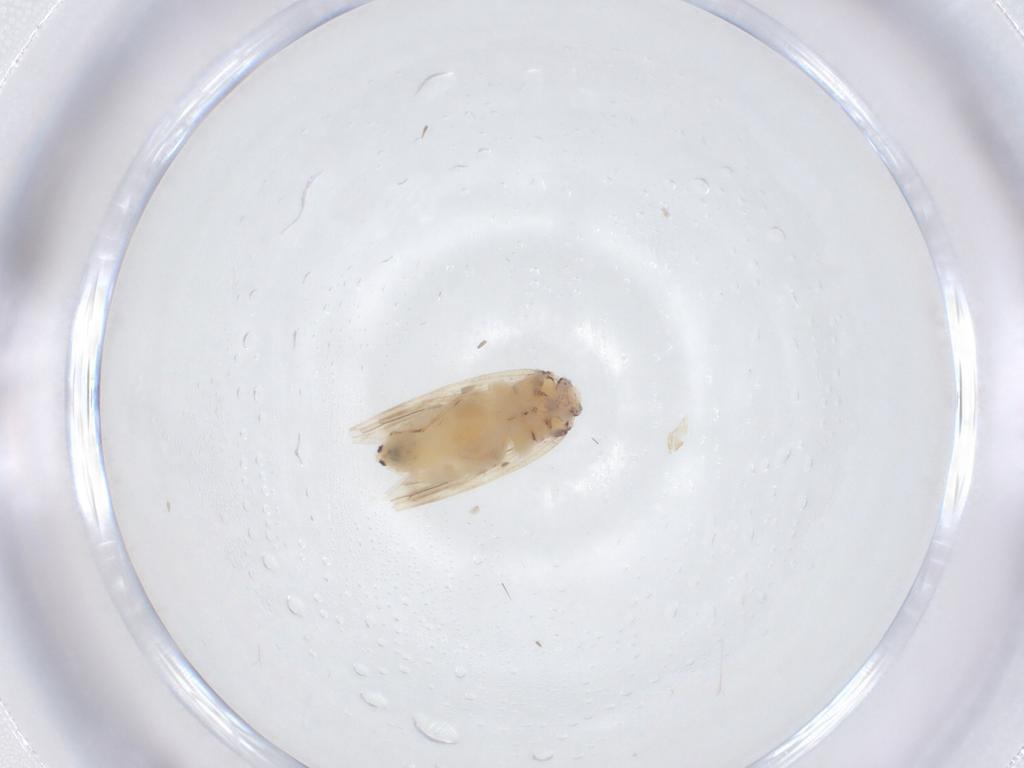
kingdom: Animalia
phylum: Arthropoda
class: Insecta
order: Psocodea
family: Lepidopsocidae
